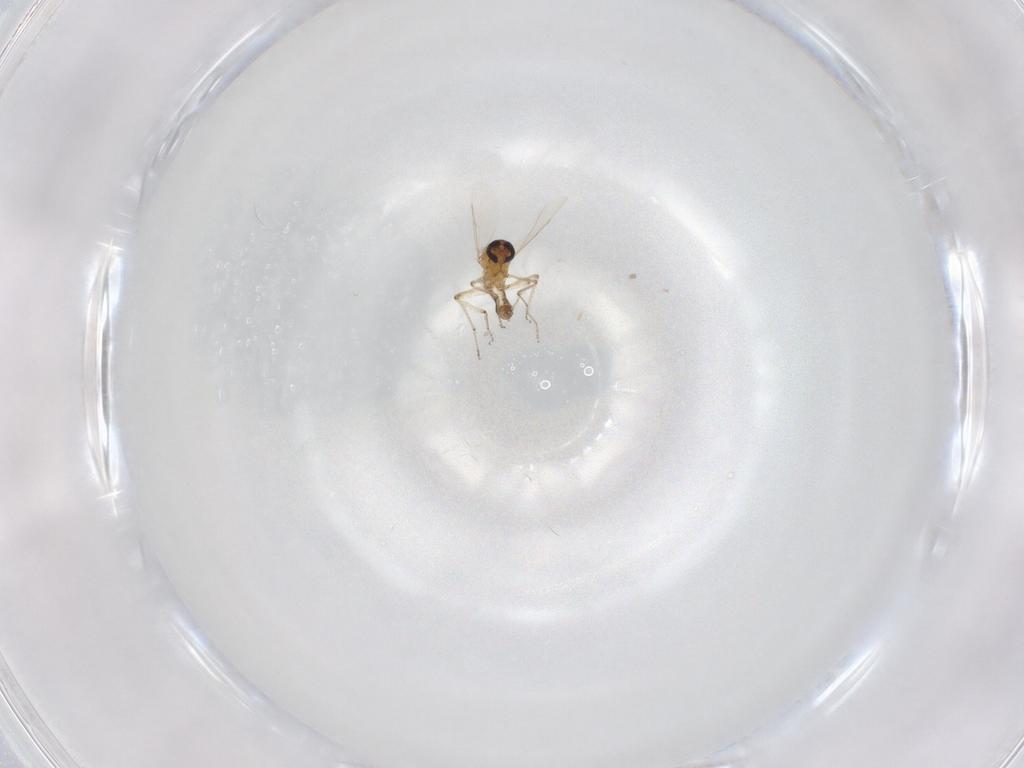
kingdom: Animalia
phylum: Arthropoda
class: Insecta
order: Diptera
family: Ceratopogonidae
